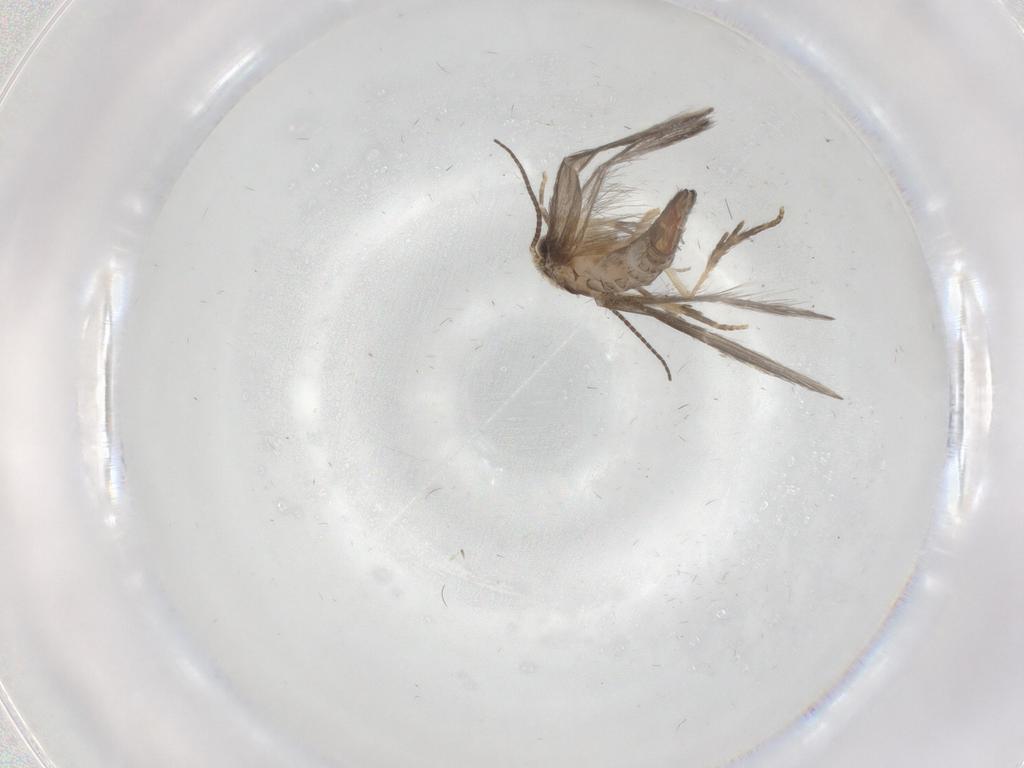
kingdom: Animalia
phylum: Arthropoda
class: Insecta
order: Trichoptera
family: Hydroptilidae
